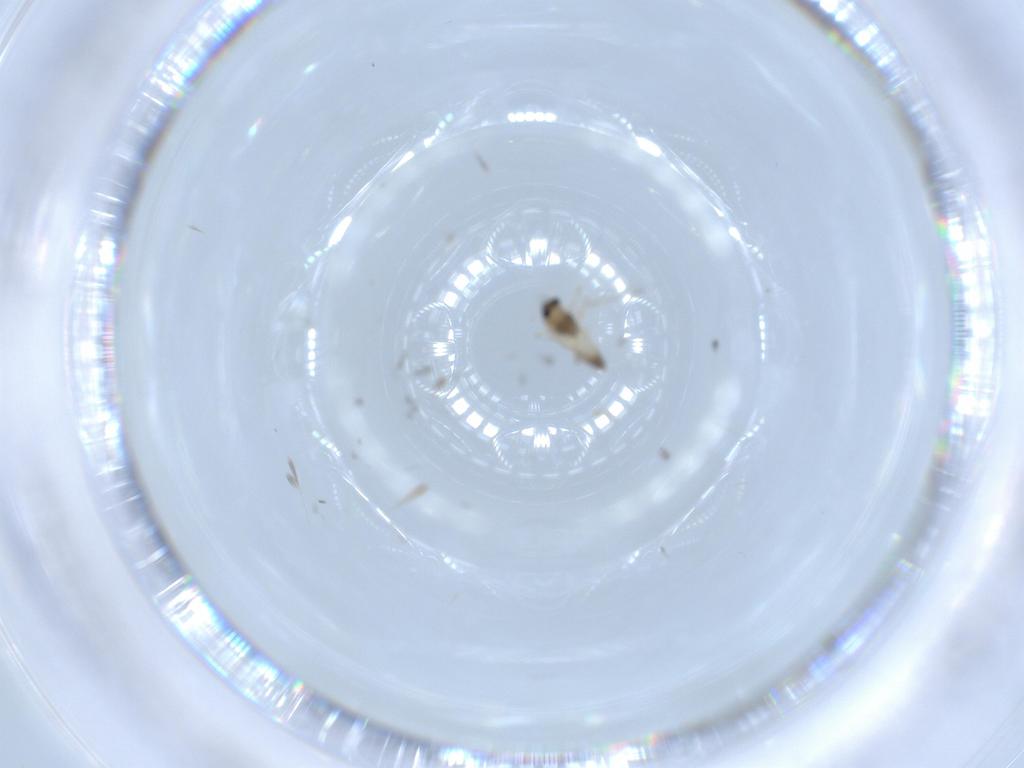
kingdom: Animalia
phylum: Arthropoda
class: Insecta
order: Diptera
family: Chironomidae
